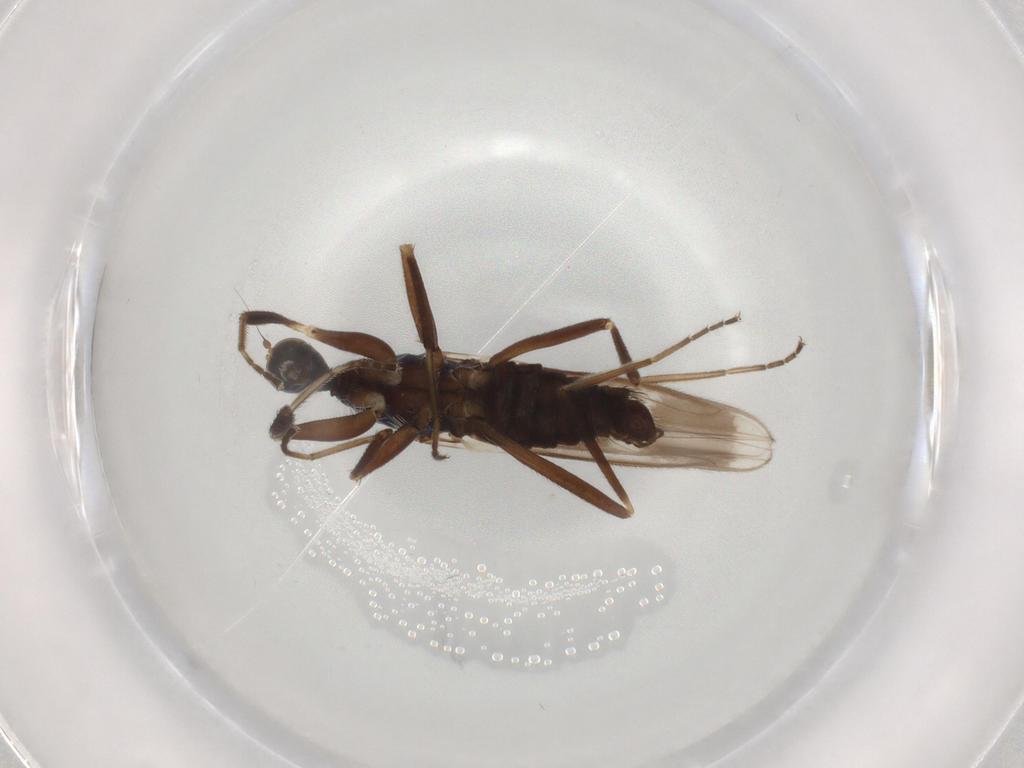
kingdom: Animalia
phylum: Arthropoda
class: Insecta
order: Diptera
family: Hybotidae
